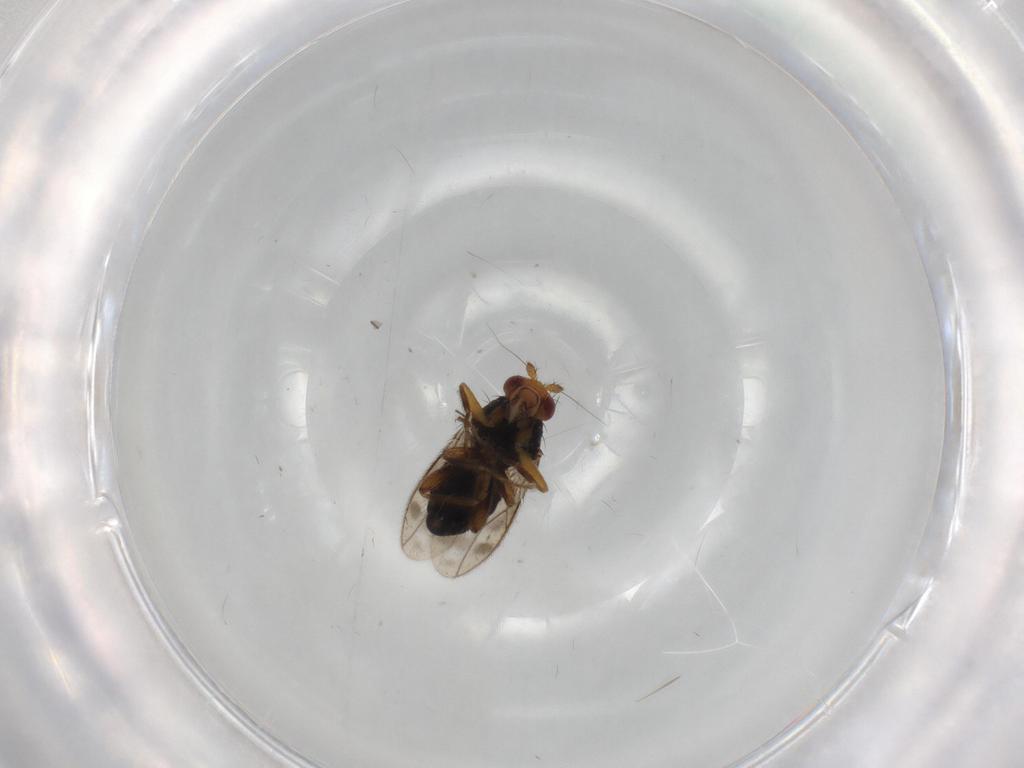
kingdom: Animalia
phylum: Arthropoda
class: Insecta
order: Diptera
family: Sphaeroceridae
